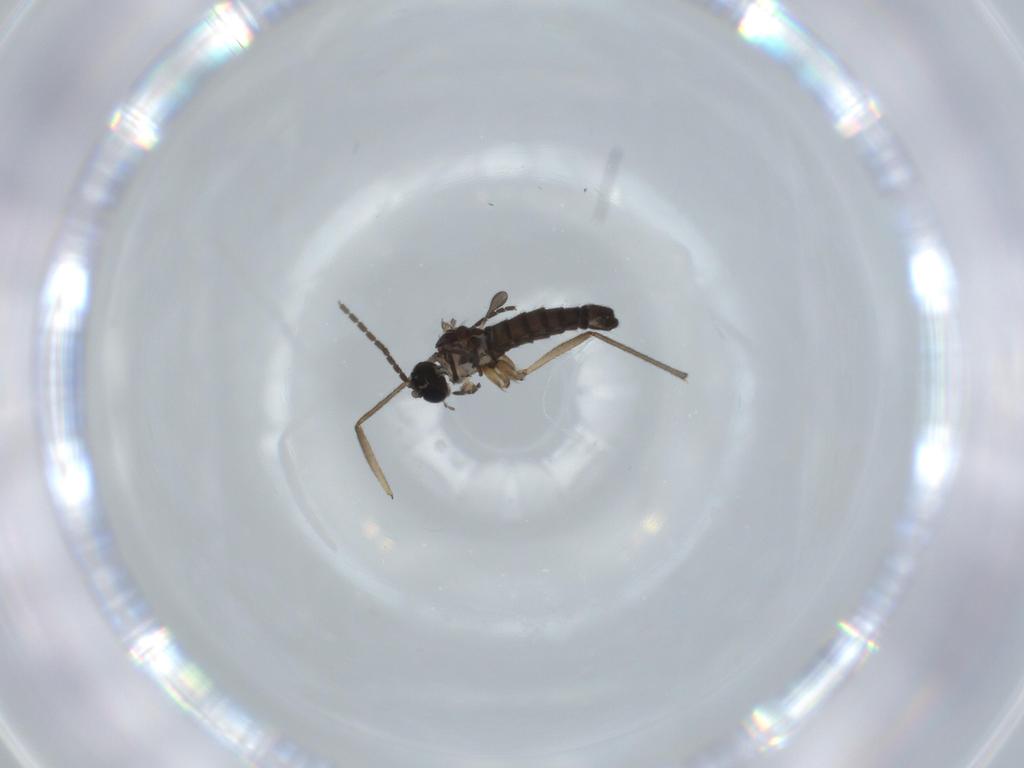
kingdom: Animalia
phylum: Arthropoda
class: Insecta
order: Diptera
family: Sciaridae
